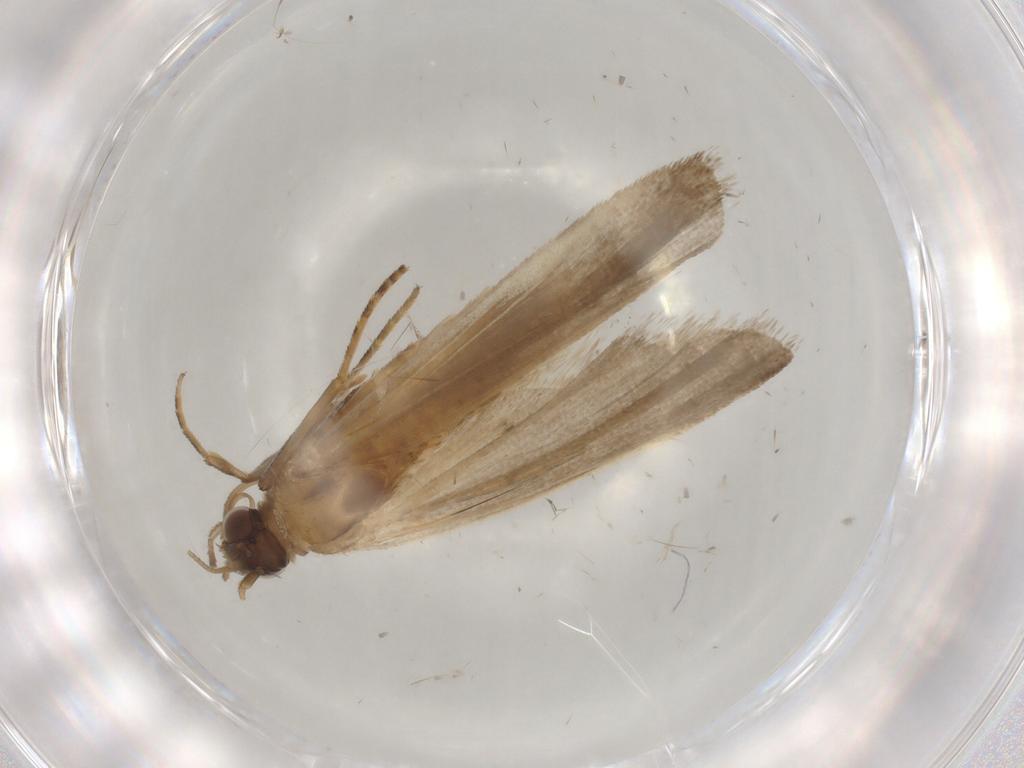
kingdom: Animalia
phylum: Arthropoda
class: Insecta
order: Lepidoptera
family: Noctuidae
